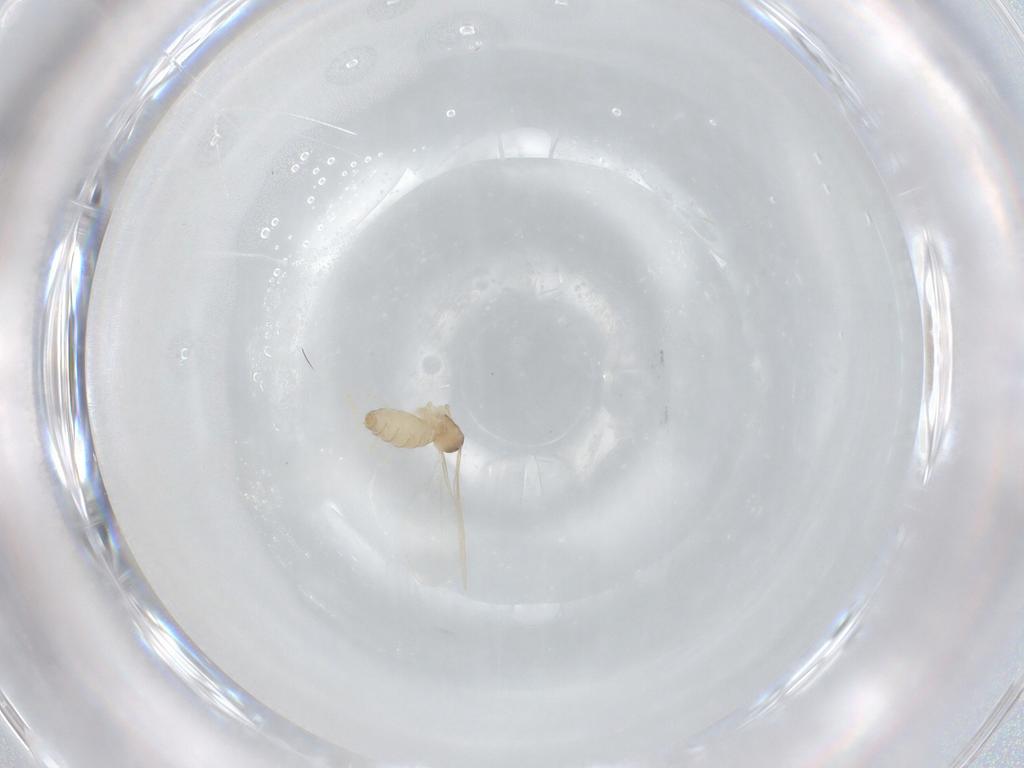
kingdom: Animalia
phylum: Arthropoda
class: Insecta
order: Diptera
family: Cecidomyiidae
